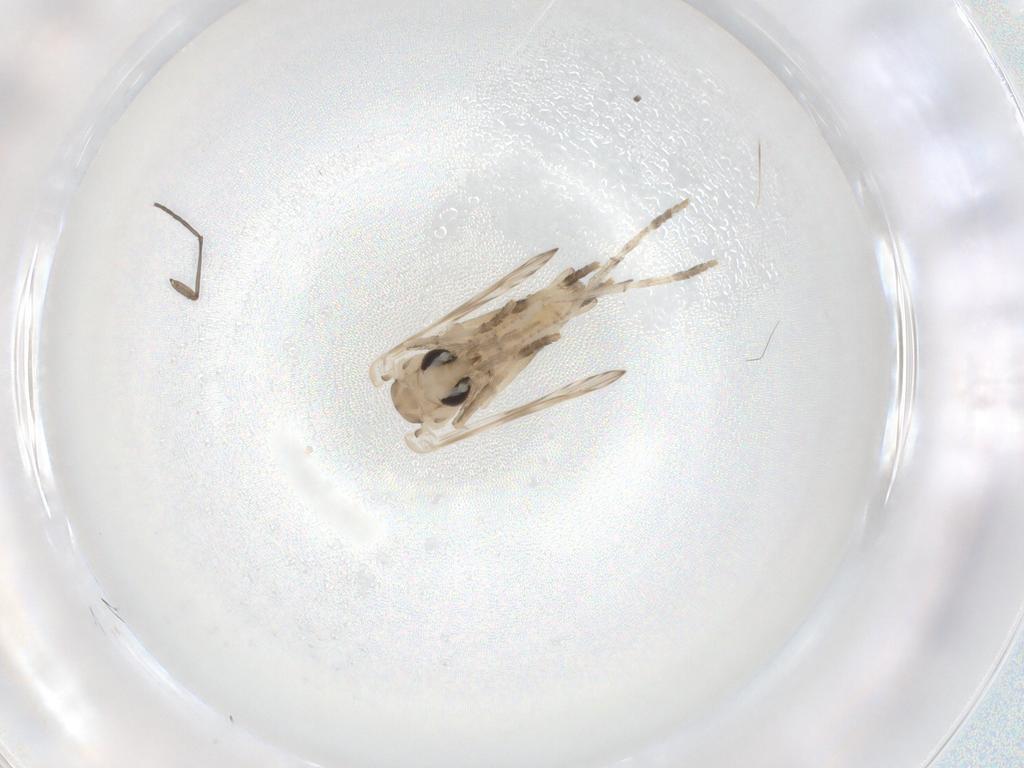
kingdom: Animalia
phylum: Arthropoda
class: Insecta
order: Diptera
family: Psychodidae
